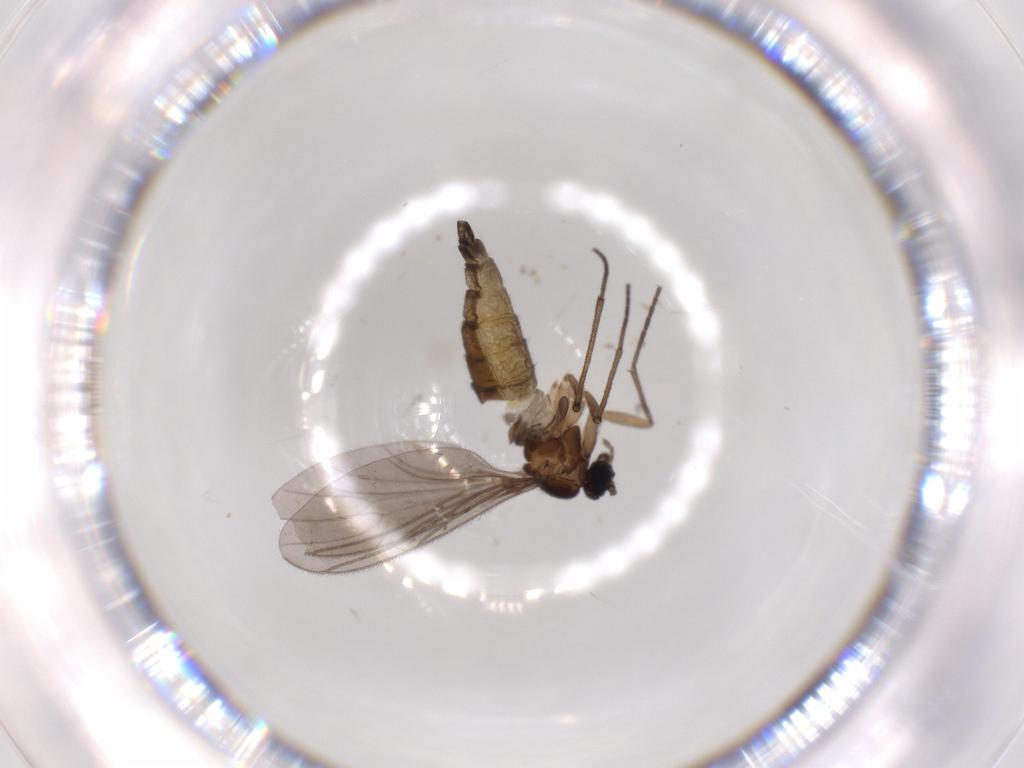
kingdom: Animalia
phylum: Arthropoda
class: Insecta
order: Diptera
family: Sciaridae
